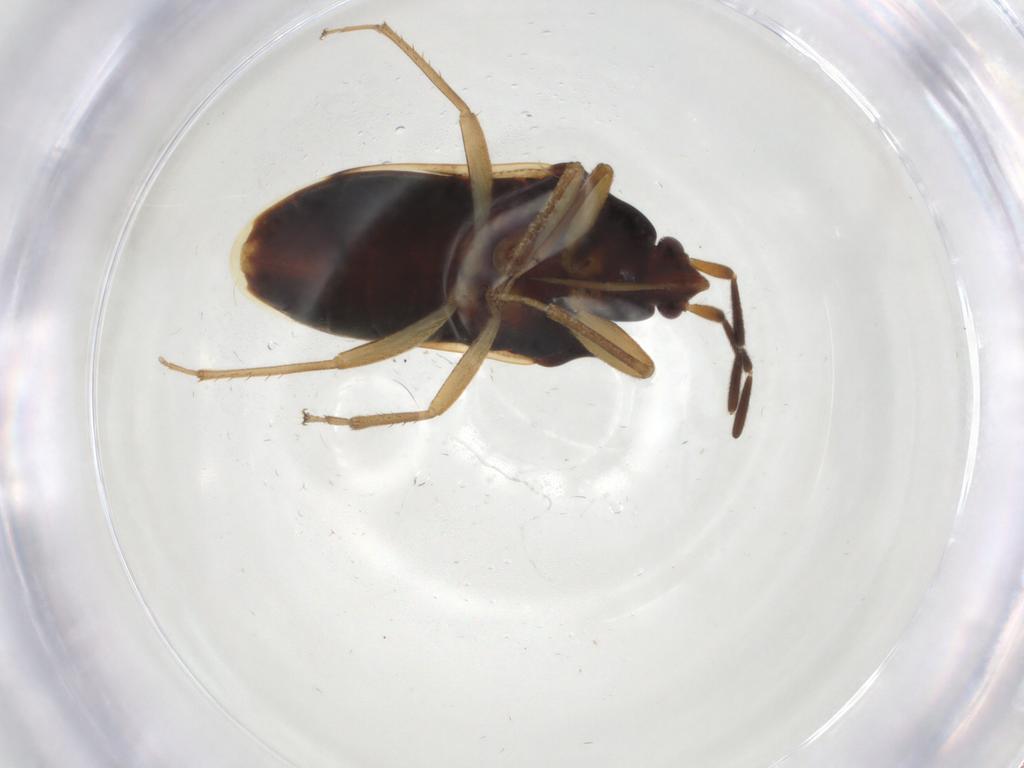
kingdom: Animalia
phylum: Arthropoda
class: Insecta
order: Hemiptera
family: Rhyparochromidae
